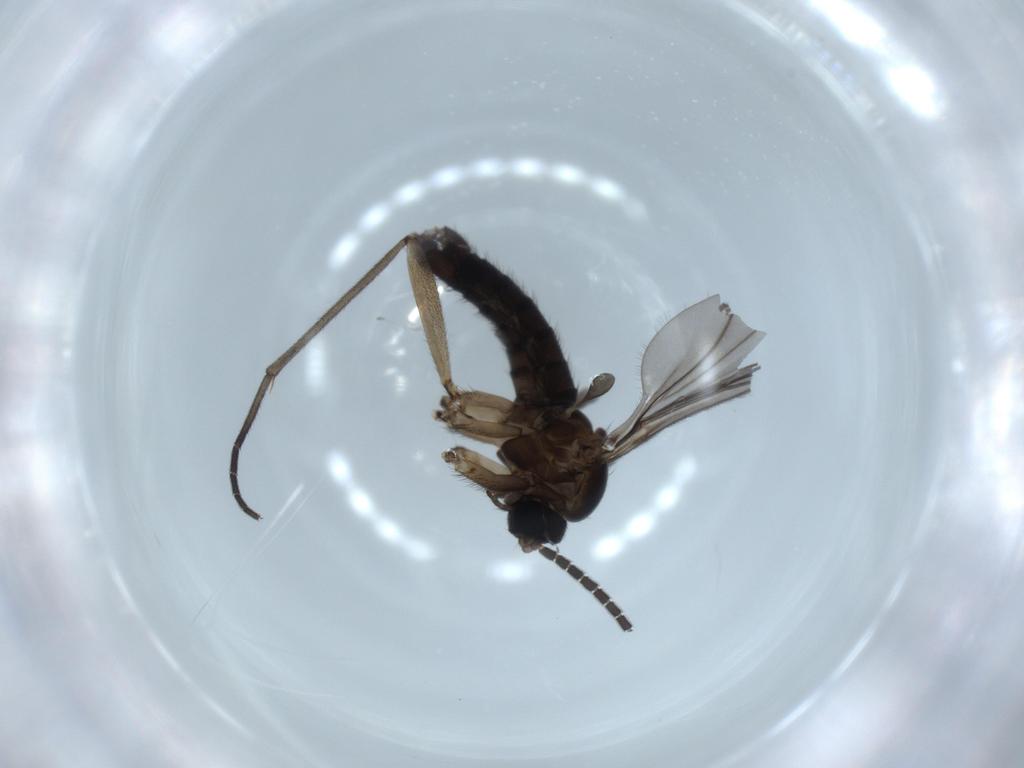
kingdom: Animalia
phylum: Arthropoda
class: Insecta
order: Diptera
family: Sciaridae
